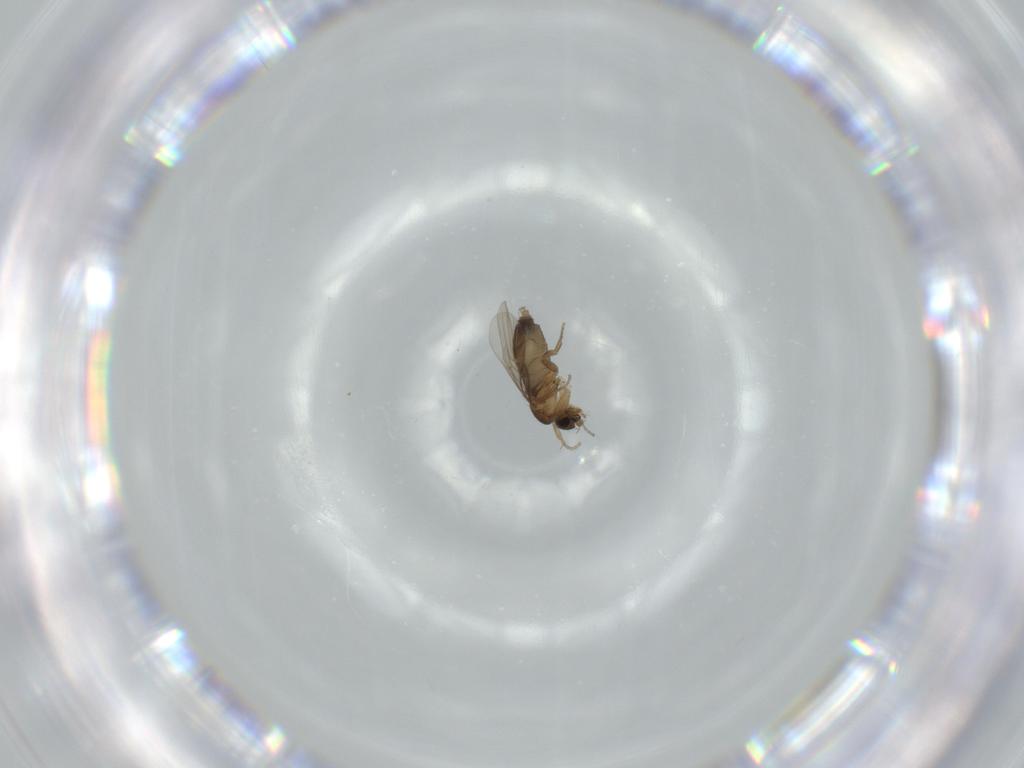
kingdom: Animalia
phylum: Arthropoda
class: Insecta
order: Diptera
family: Phoridae
